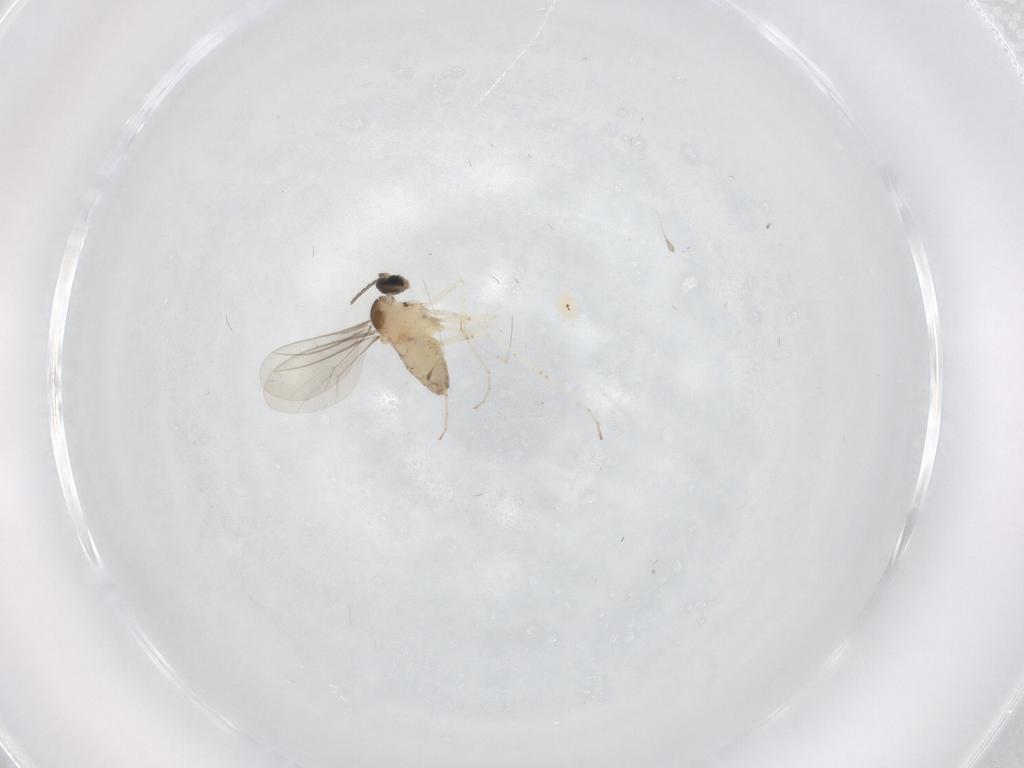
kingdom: Animalia
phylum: Arthropoda
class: Insecta
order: Diptera
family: Cecidomyiidae
